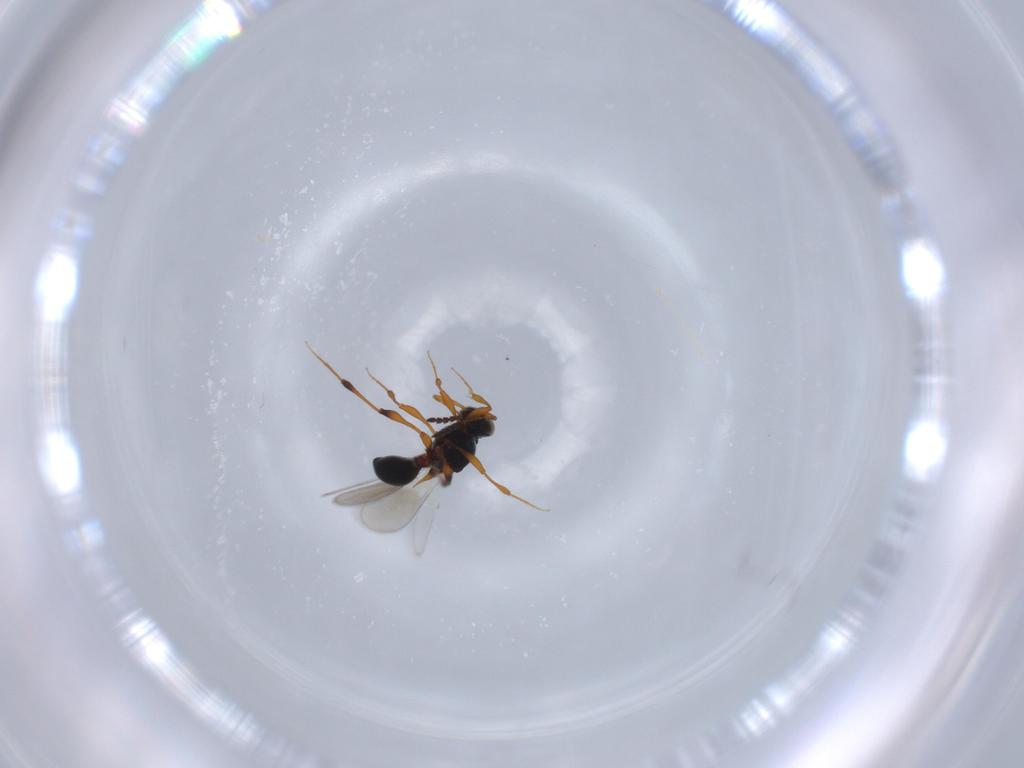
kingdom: Animalia
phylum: Arthropoda
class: Insecta
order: Hymenoptera
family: Platygastridae
